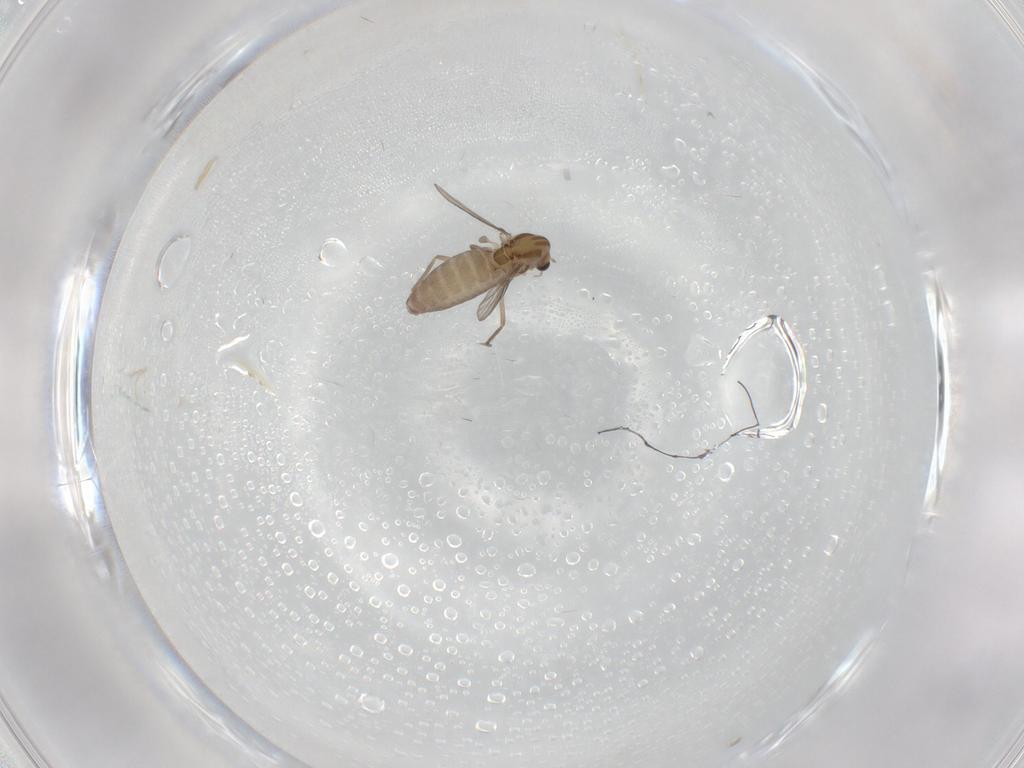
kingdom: Animalia
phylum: Arthropoda
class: Insecta
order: Diptera
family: Chironomidae
